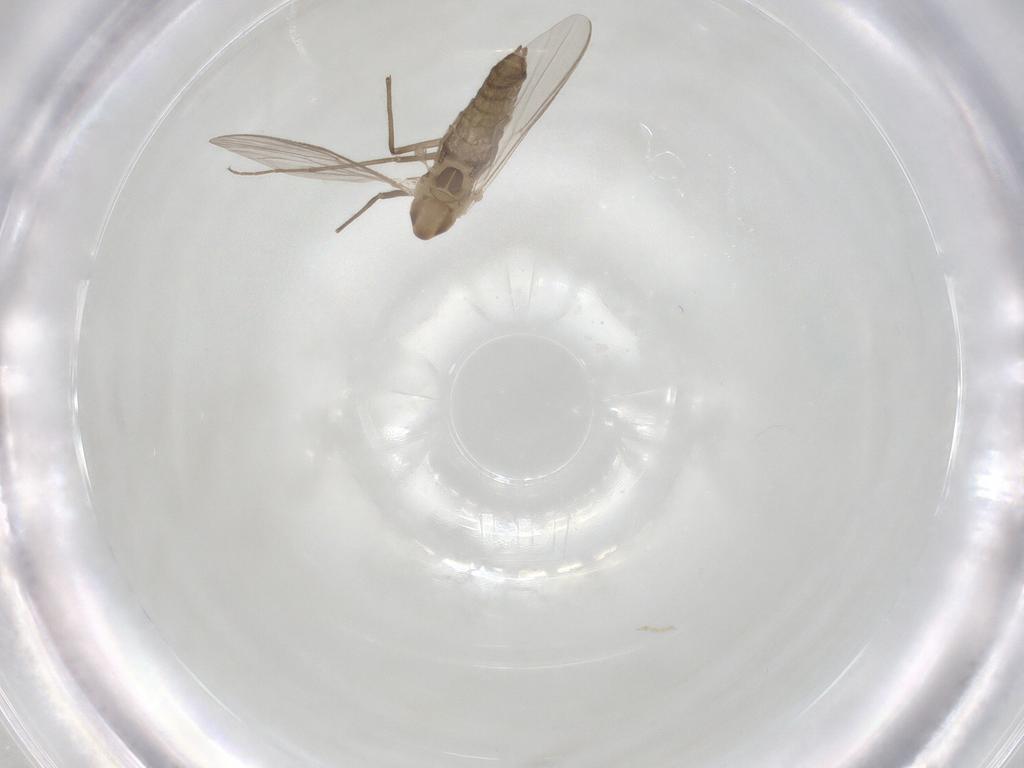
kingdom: Animalia
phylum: Arthropoda
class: Insecta
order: Diptera
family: Chironomidae
